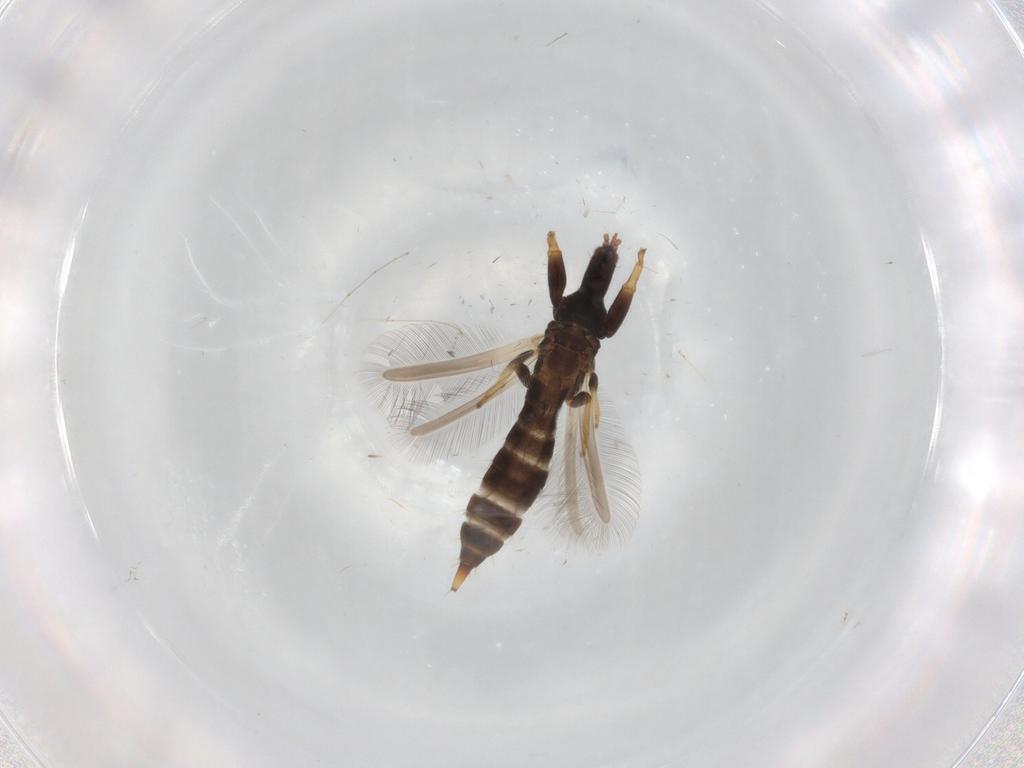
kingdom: Animalia
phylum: Arthropoda
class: Insecta
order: Thysanoptera
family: Phlaeothripidae
